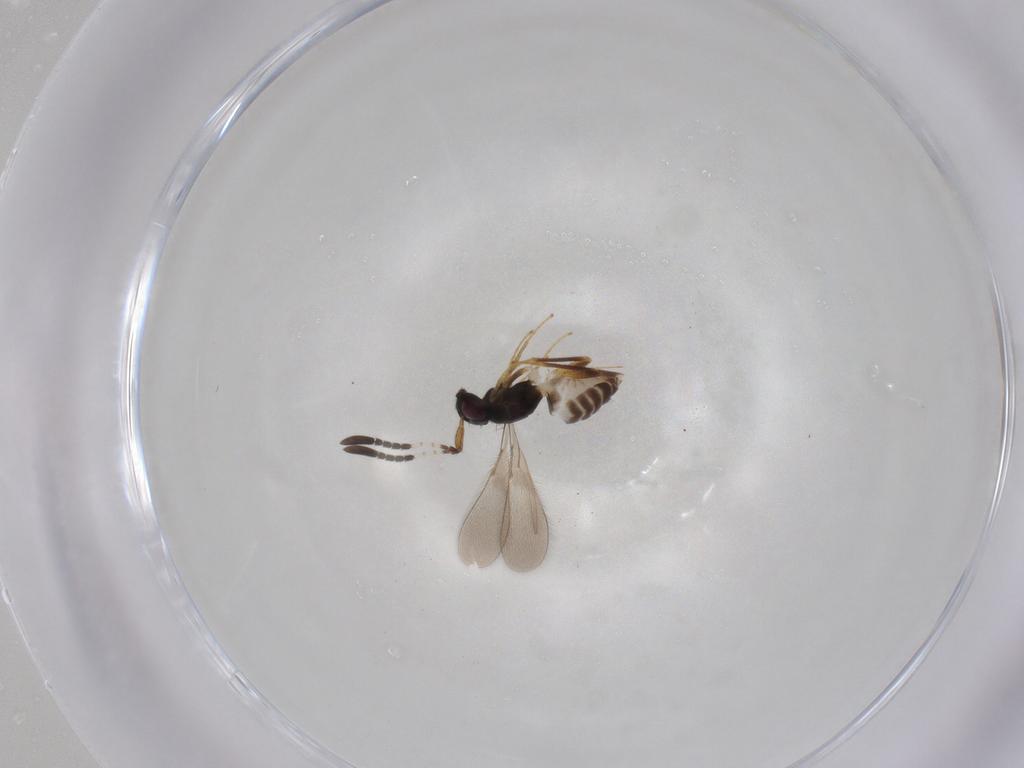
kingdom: Animalia
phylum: Arthropoda
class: Insecta
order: Hymenoptera
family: Mymaridae
